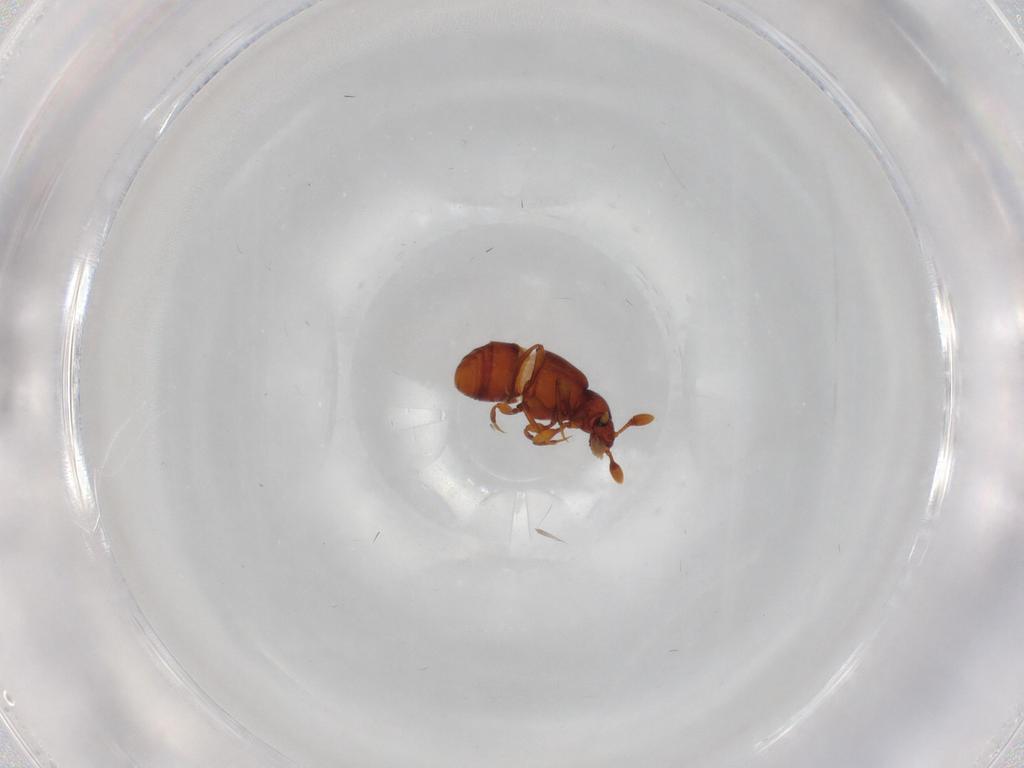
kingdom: Animalia
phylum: Arthropoda
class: Insecta
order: Coleoptera
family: Staphylinidae
